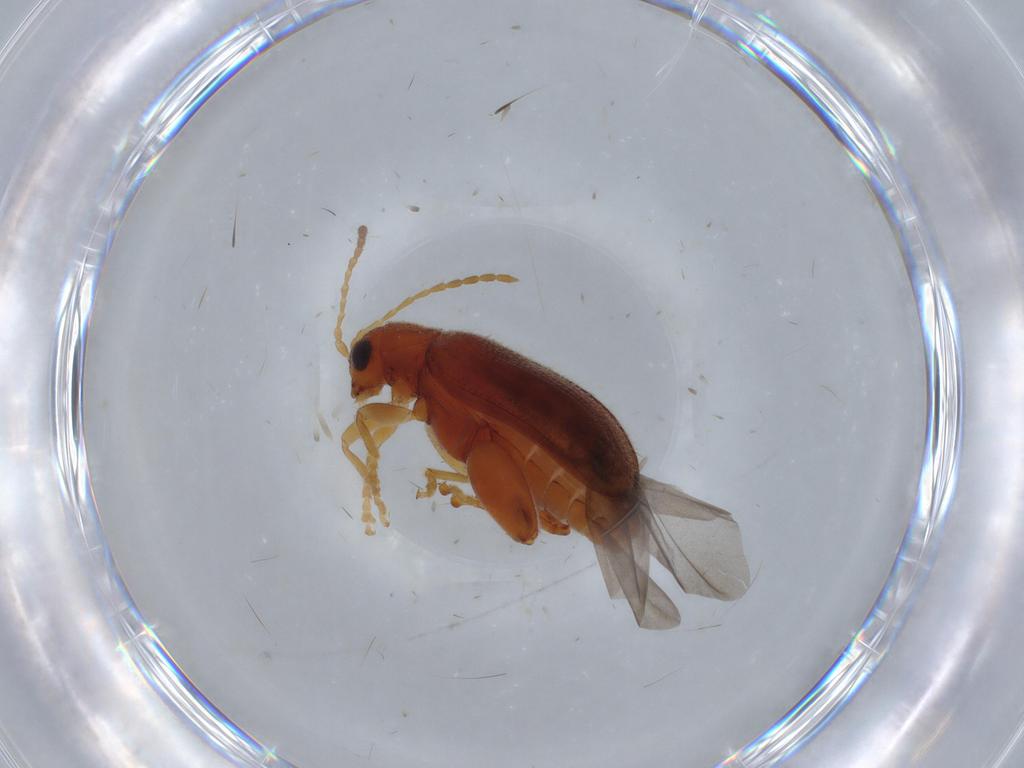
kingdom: Animalia
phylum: Arthropoda
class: Insecta
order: Coleoptera
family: Chrysomelidae
